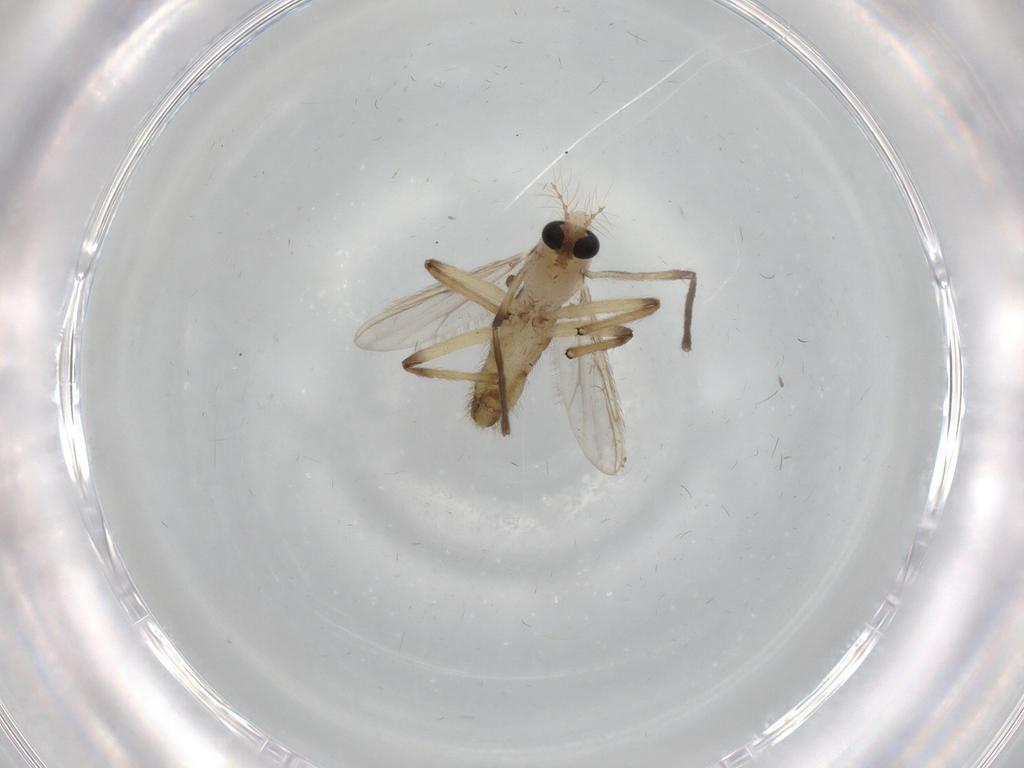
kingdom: Animalia
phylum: Arthropoda
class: Insecta
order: Diptera
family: Chironomidae
